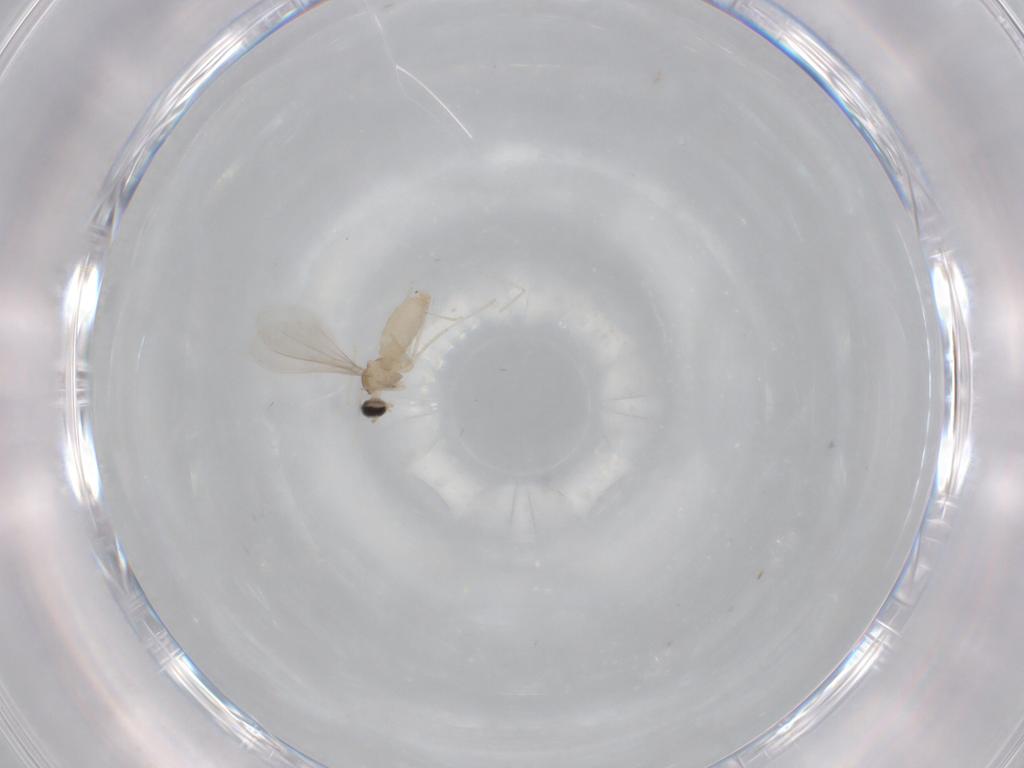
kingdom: Animalia
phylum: Arthropoda
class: Insecta
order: Diptera
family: Cecidomyiidae
